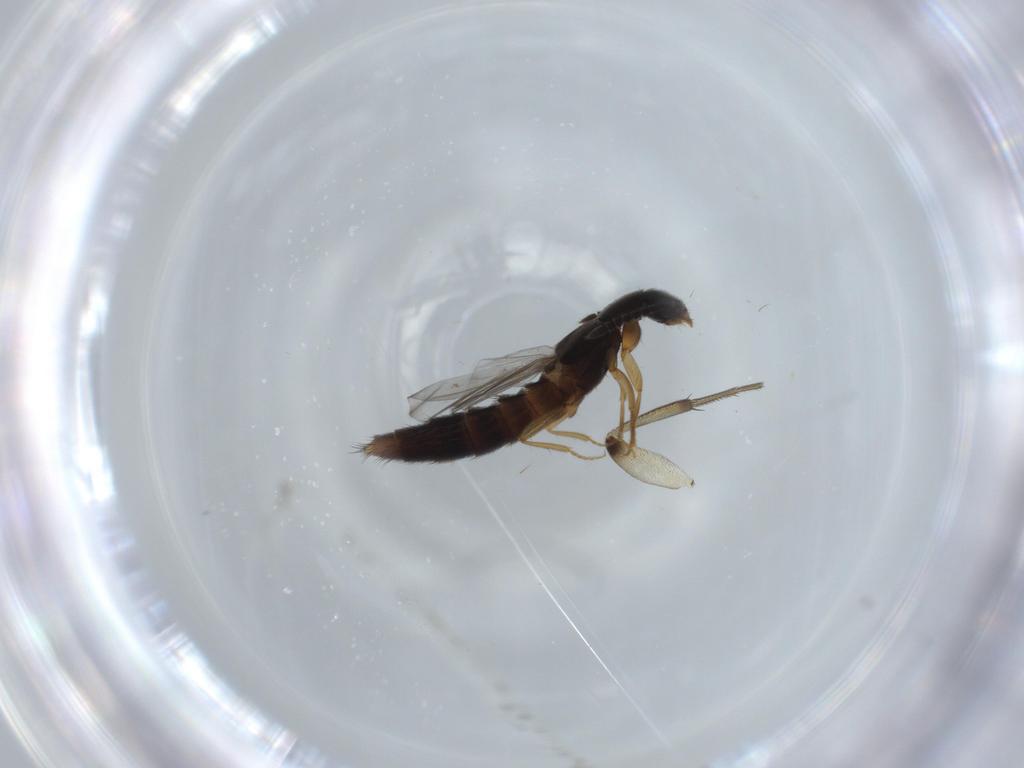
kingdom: Animalia
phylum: Arthropoda
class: Insecta
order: Coleoptera
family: Staphylinidae
